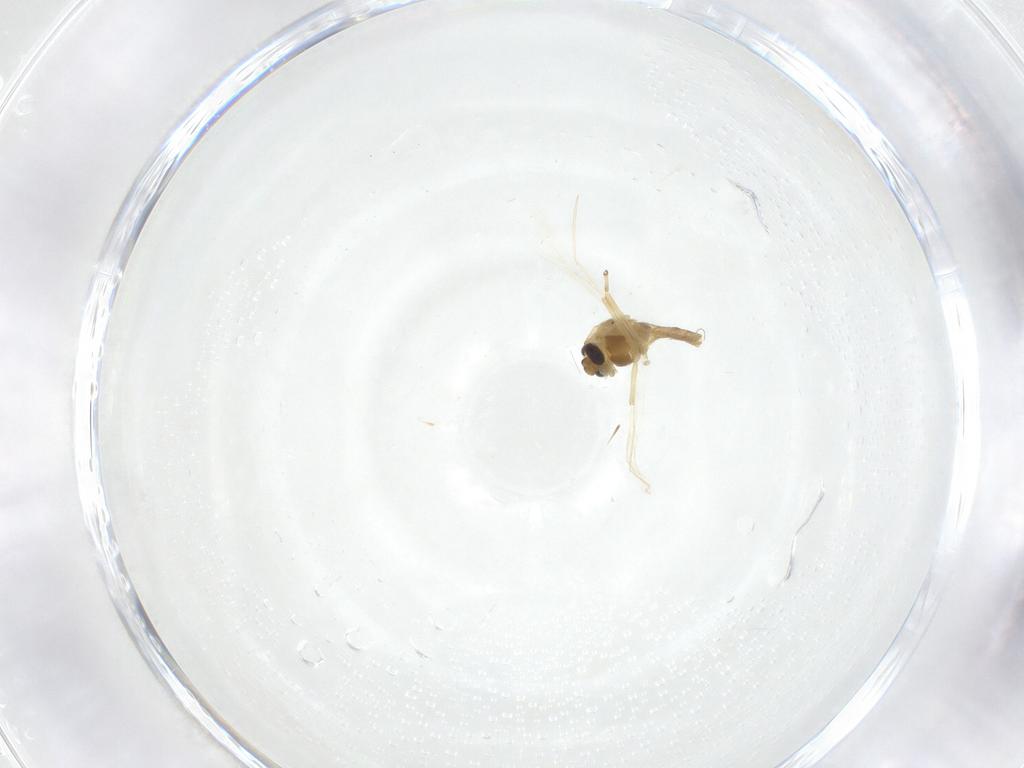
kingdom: Animalia
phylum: Arthropoda
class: Insecta
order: Diptera
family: Chironomidae
